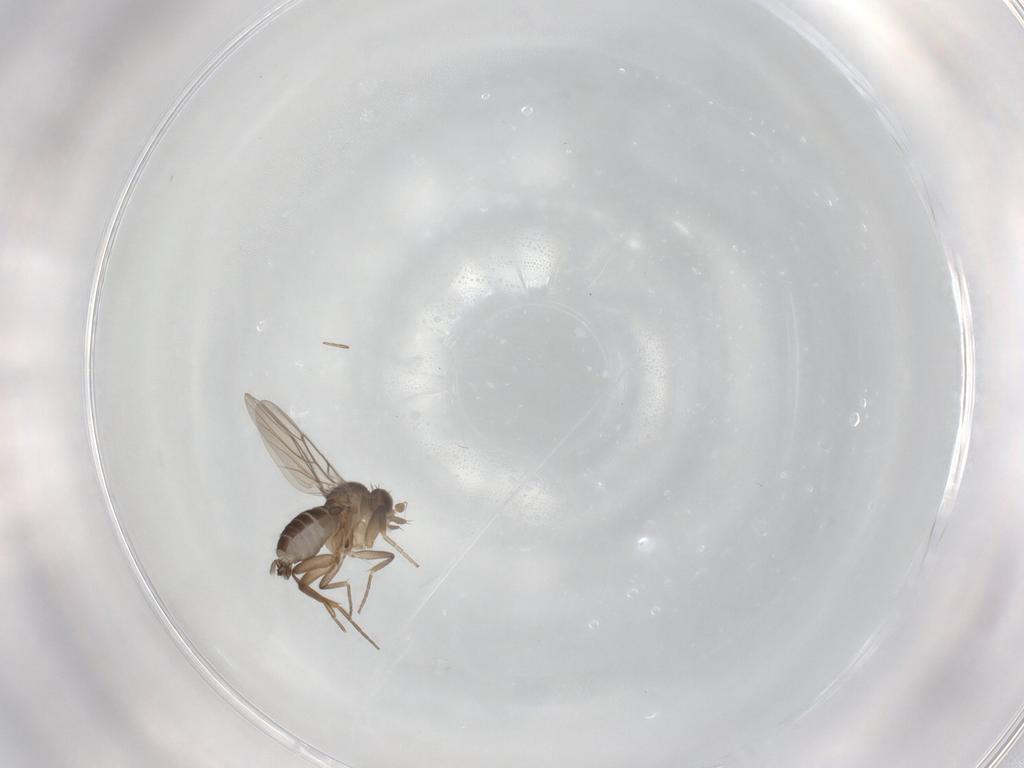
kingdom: Animalia
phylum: Arthropoda
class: Insecta
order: Diptera
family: Phoridae
